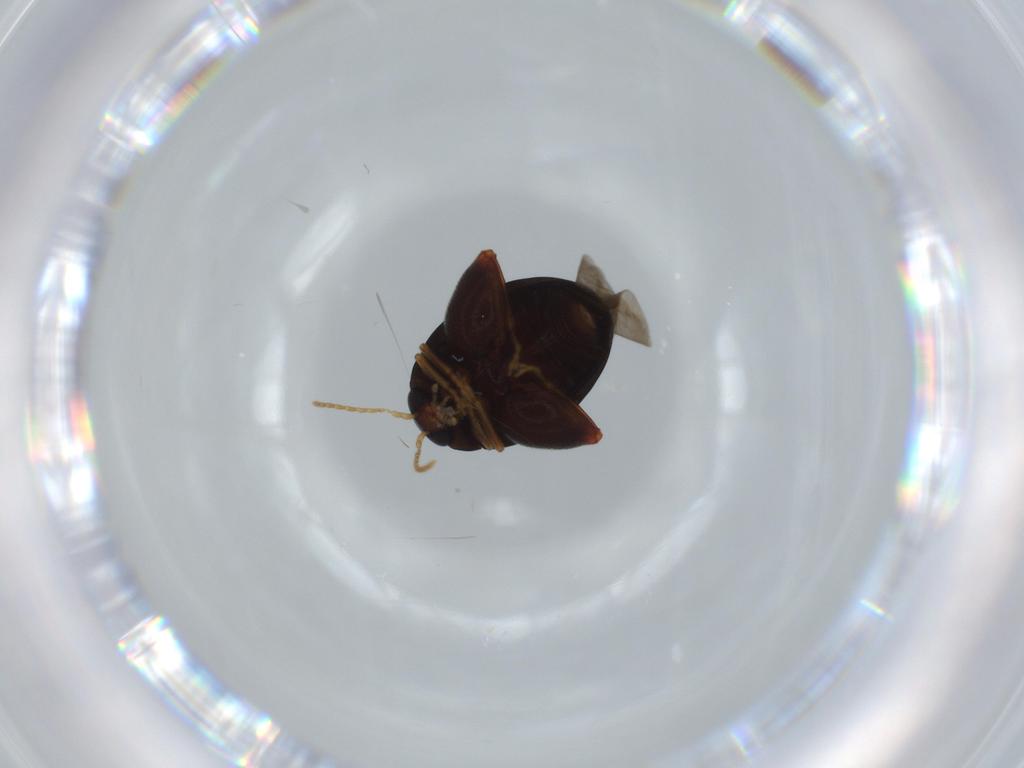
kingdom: Animalia
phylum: Arthropoda
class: Insecta
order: Coleoptera
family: Chrysomelidae
